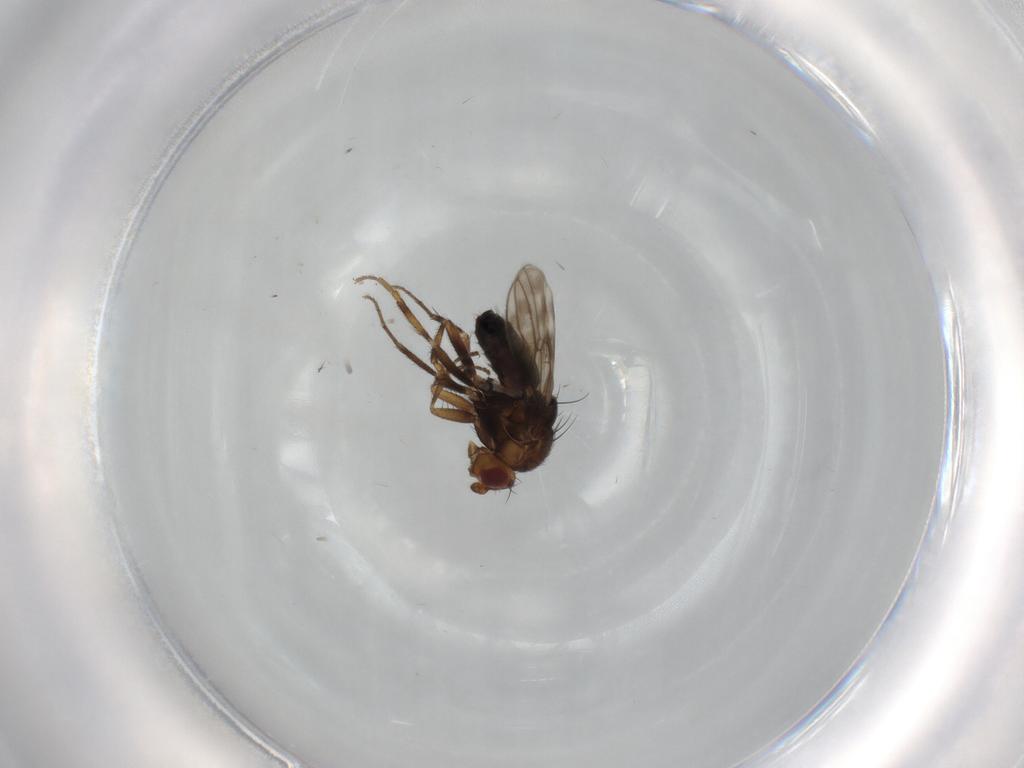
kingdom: Animalia
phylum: Arthropoda
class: Insecta
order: Diptera
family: Sphaeroceridae
